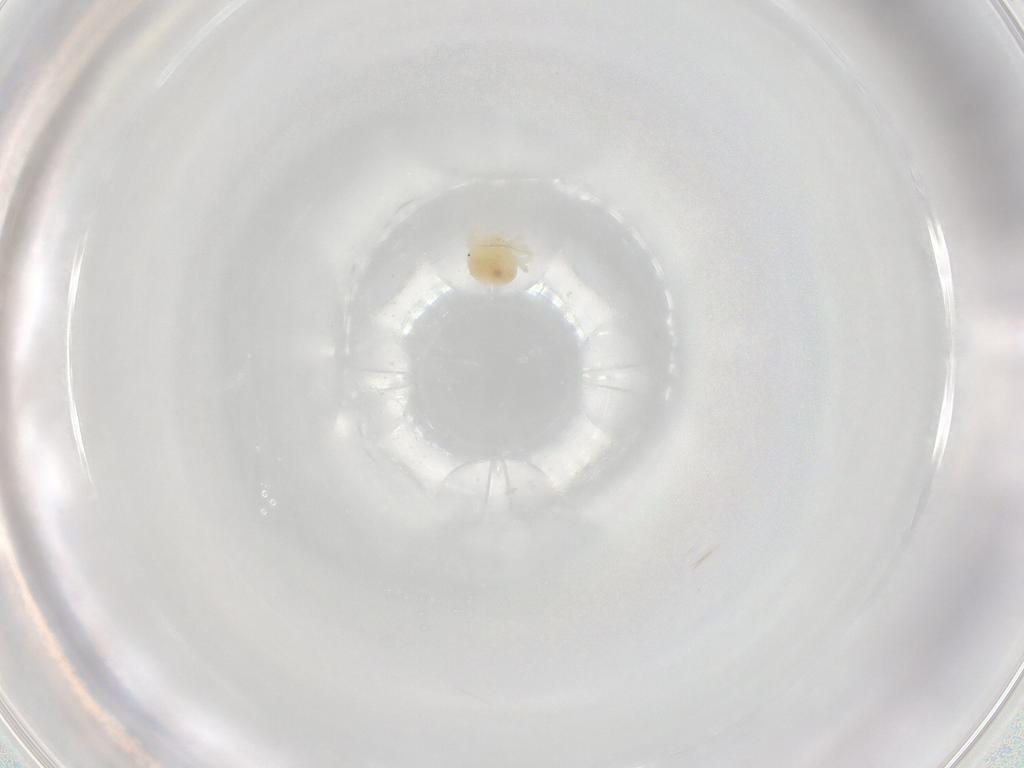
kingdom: Animalia
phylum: Arthropoda
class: Arachnida
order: Trombidiformes
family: Anystidae
